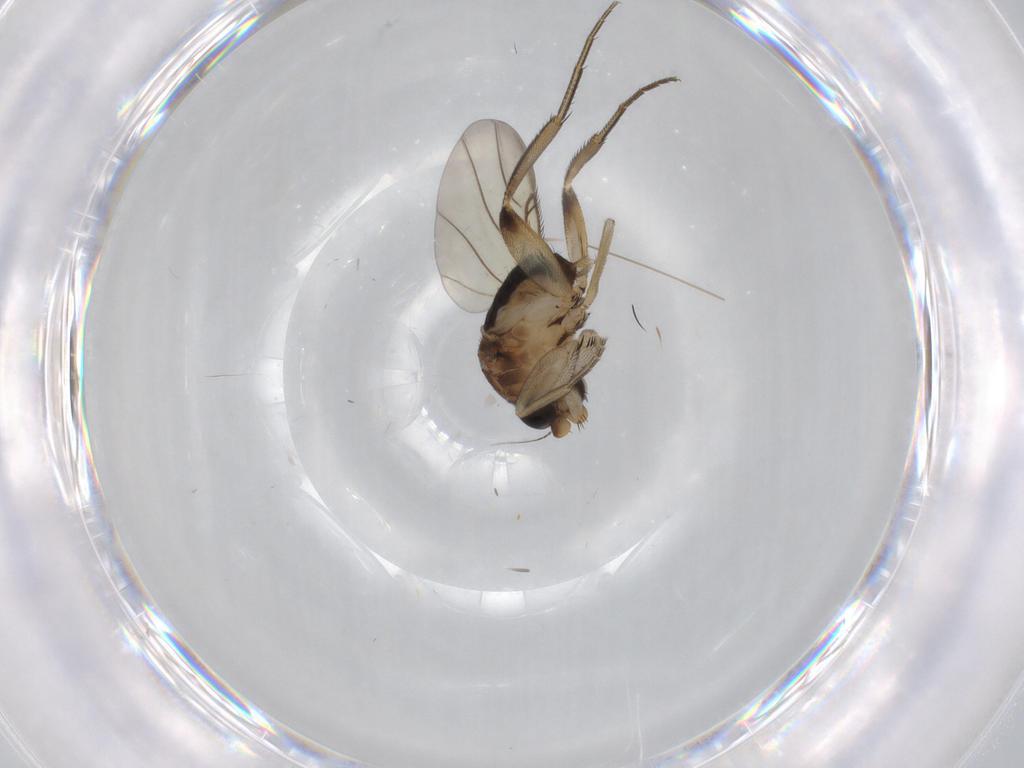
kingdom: Animalia
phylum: Arthropoda
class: Insecta
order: Diptera
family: Phoridae
